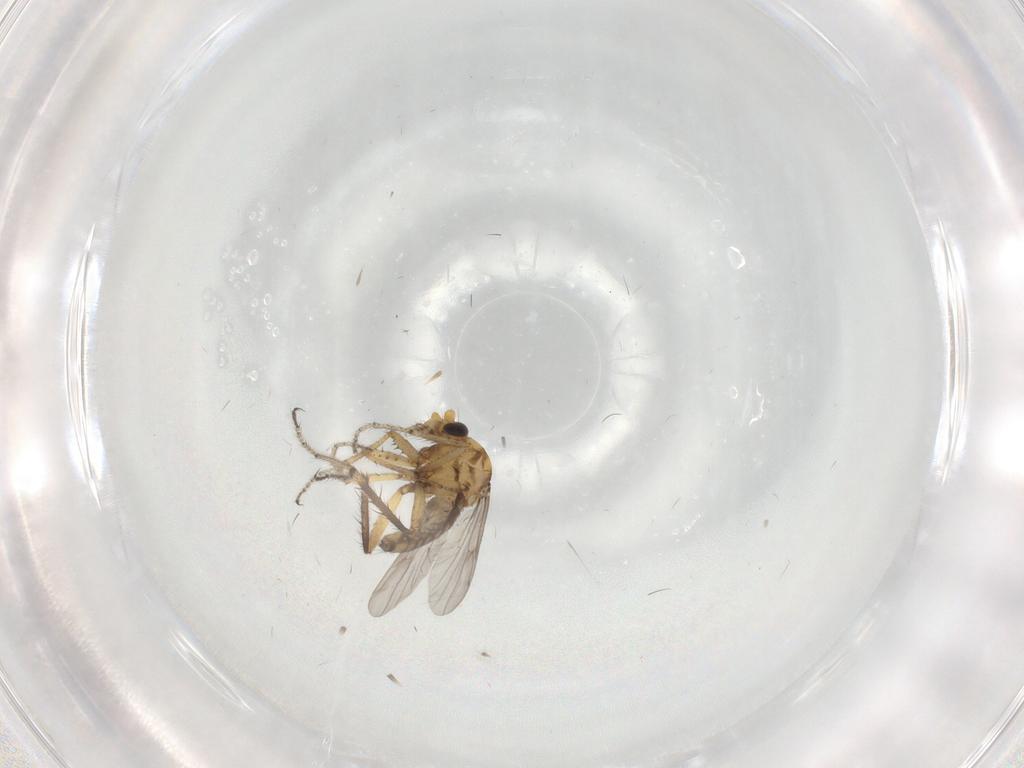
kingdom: Animalia
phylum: Arthropoda
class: Insecta
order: Diptera
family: Ceratopogonidae
